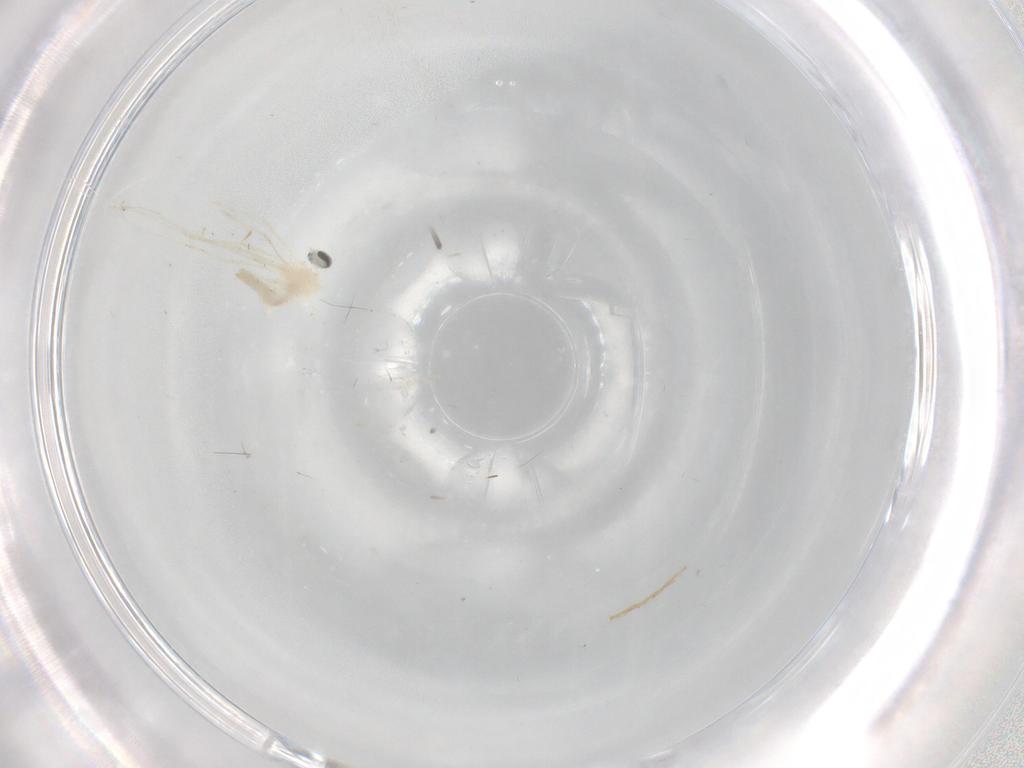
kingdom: Animalia
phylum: Arthropoda
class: Insecta
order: Diptera
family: Cecidomyiidae
